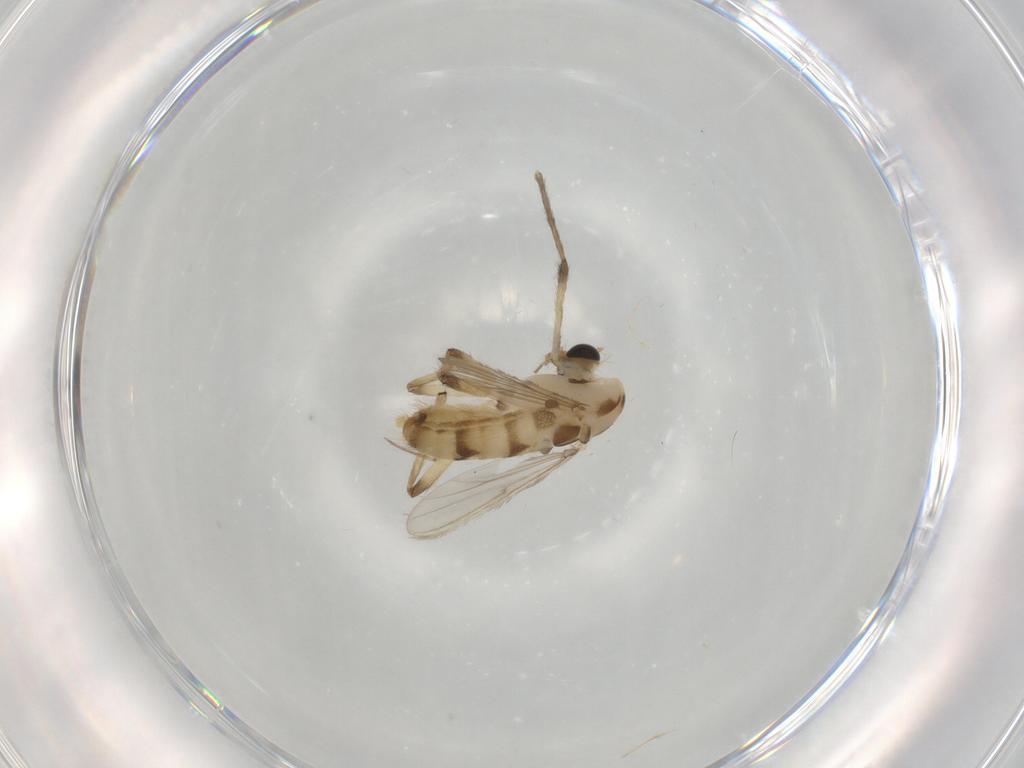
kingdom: Animalia
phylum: Arthropoda
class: Insecta
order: Diptera
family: Chironomidae
